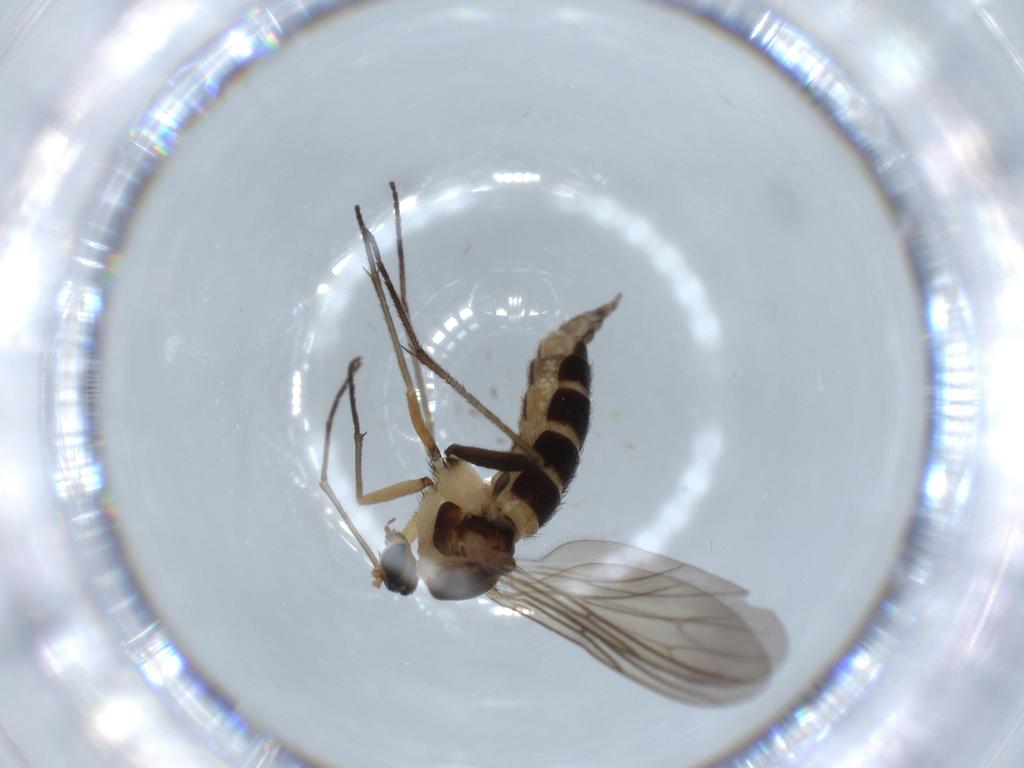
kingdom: Animalia
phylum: Arthropoda
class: Insecta
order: Diptera
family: Sciaridae
